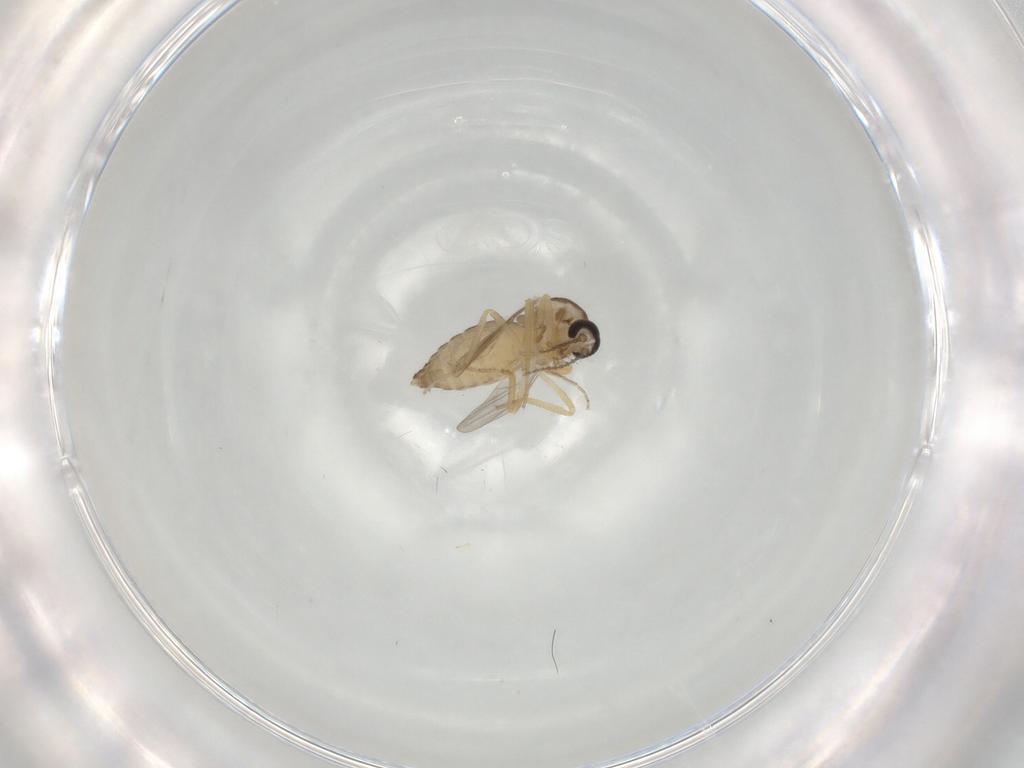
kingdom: Animalia
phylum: Arthropoda
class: Insecta
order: Diptera
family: Ceratopogonidae
